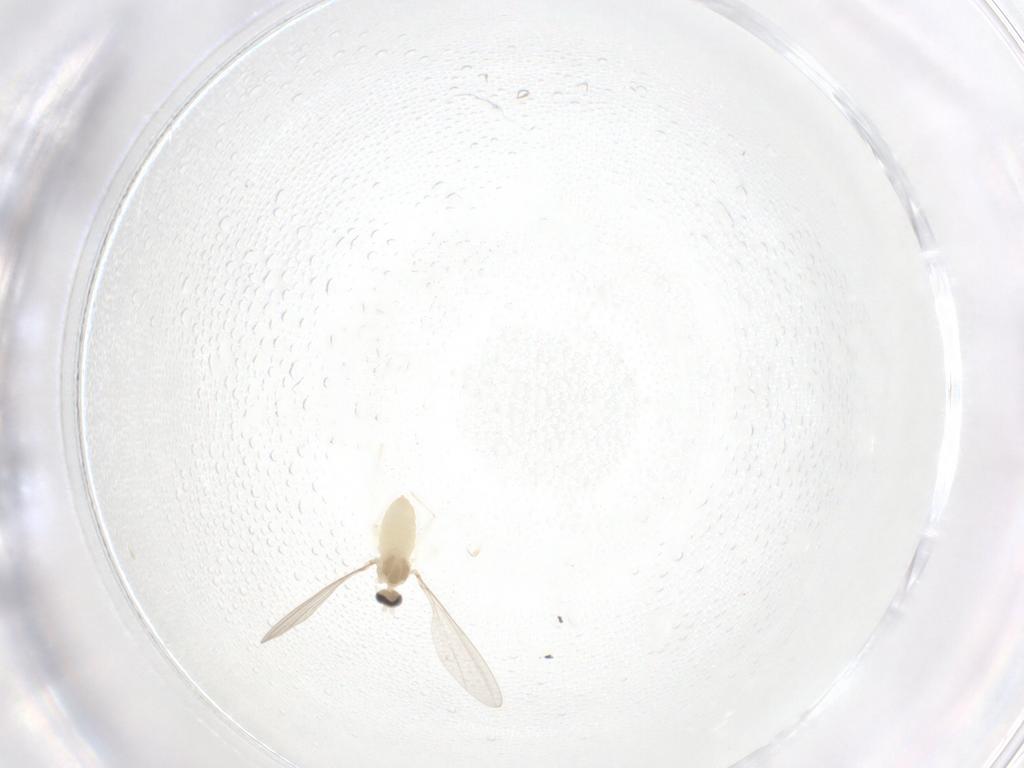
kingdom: Animalia
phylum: Arthropoda
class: Insecta
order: Diptera
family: Cecidomyiidae
